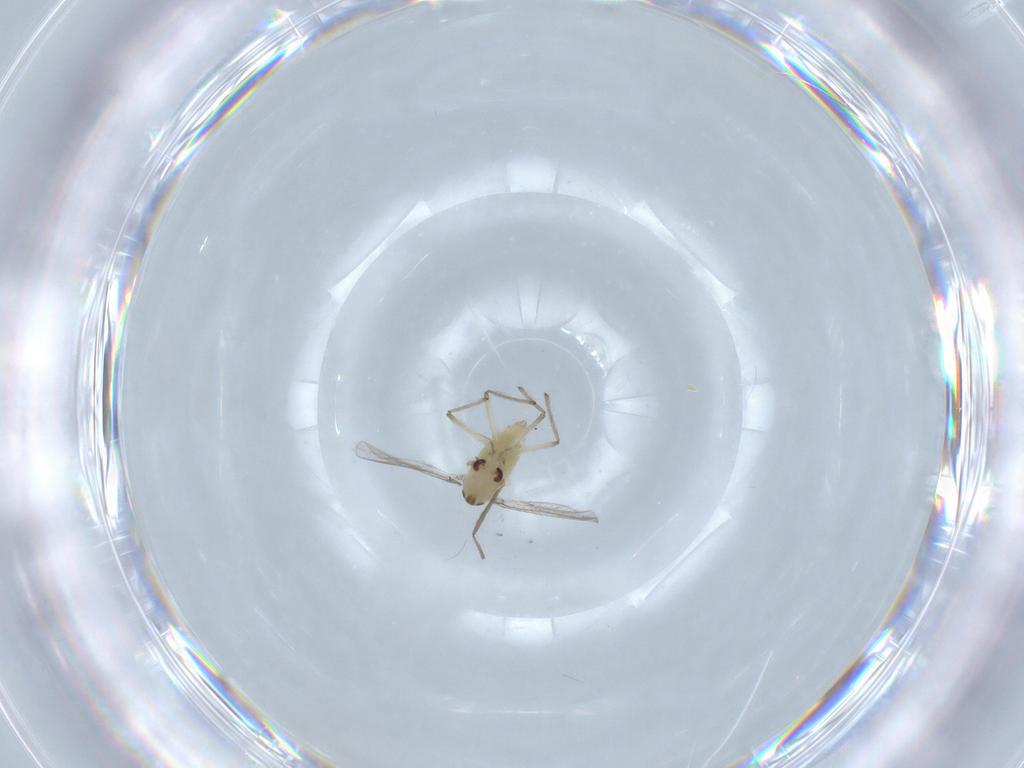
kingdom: Animalia
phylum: Arthropoda
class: Insecta
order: Diptera
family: Chironomidae
